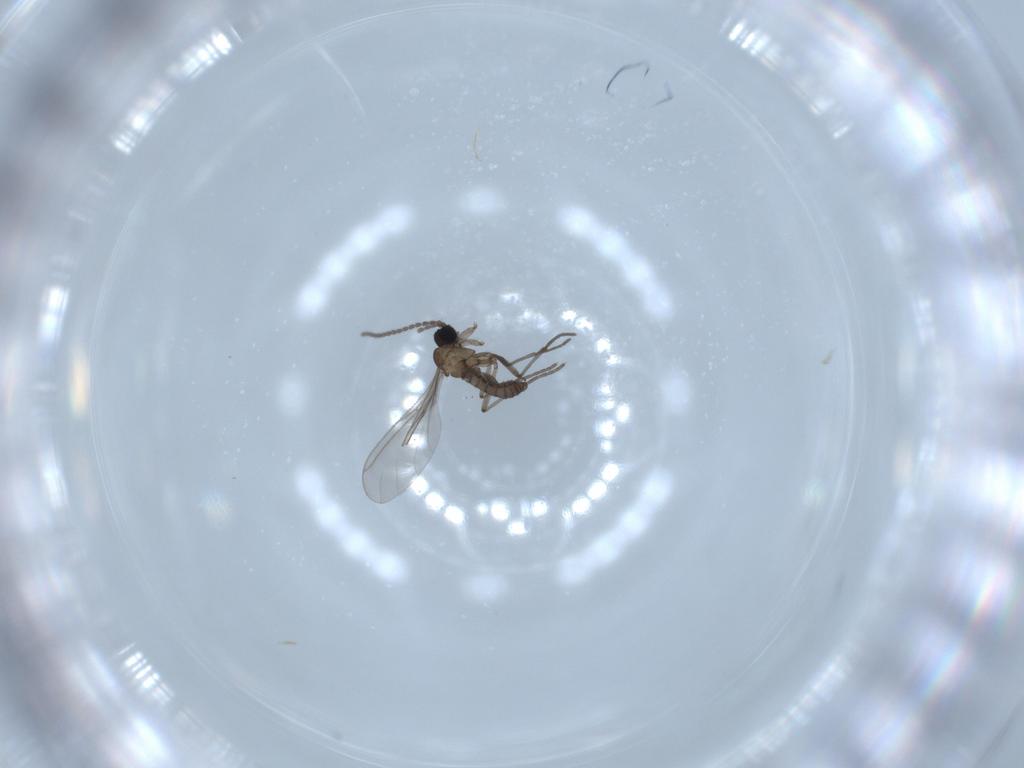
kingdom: Animalia
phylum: Arthropoda
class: Insecta
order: Diptera
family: Sciaridae
